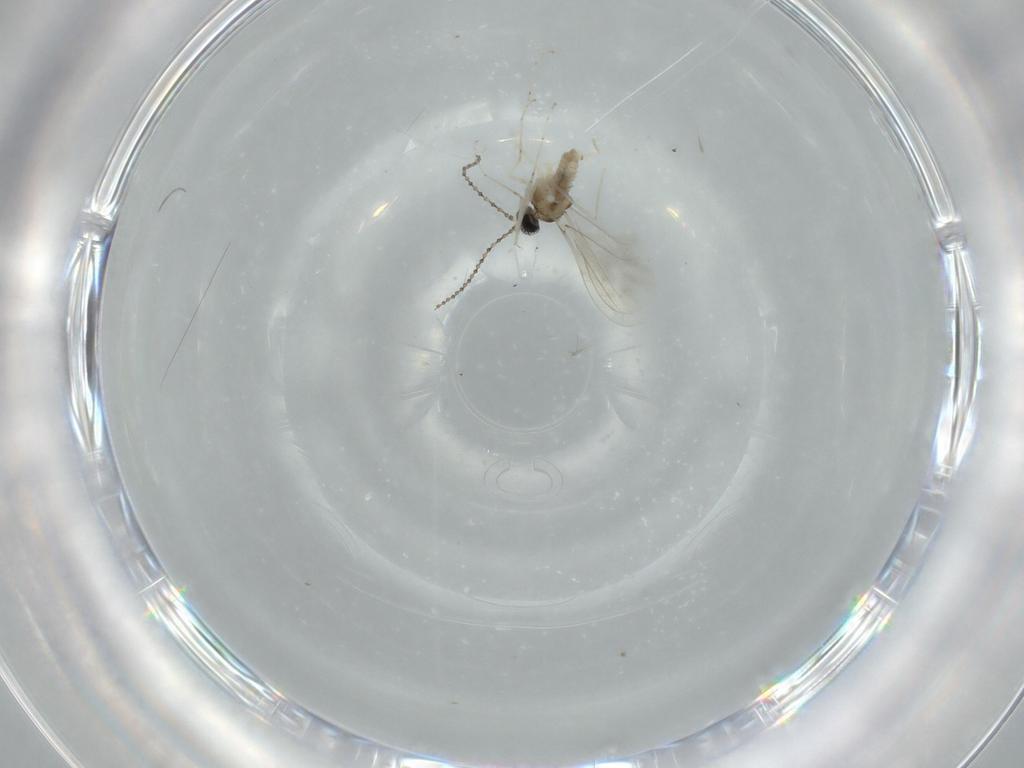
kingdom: Animalia
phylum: Arthropoda
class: Insecta
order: Diptera
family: Cecidomyiidae
